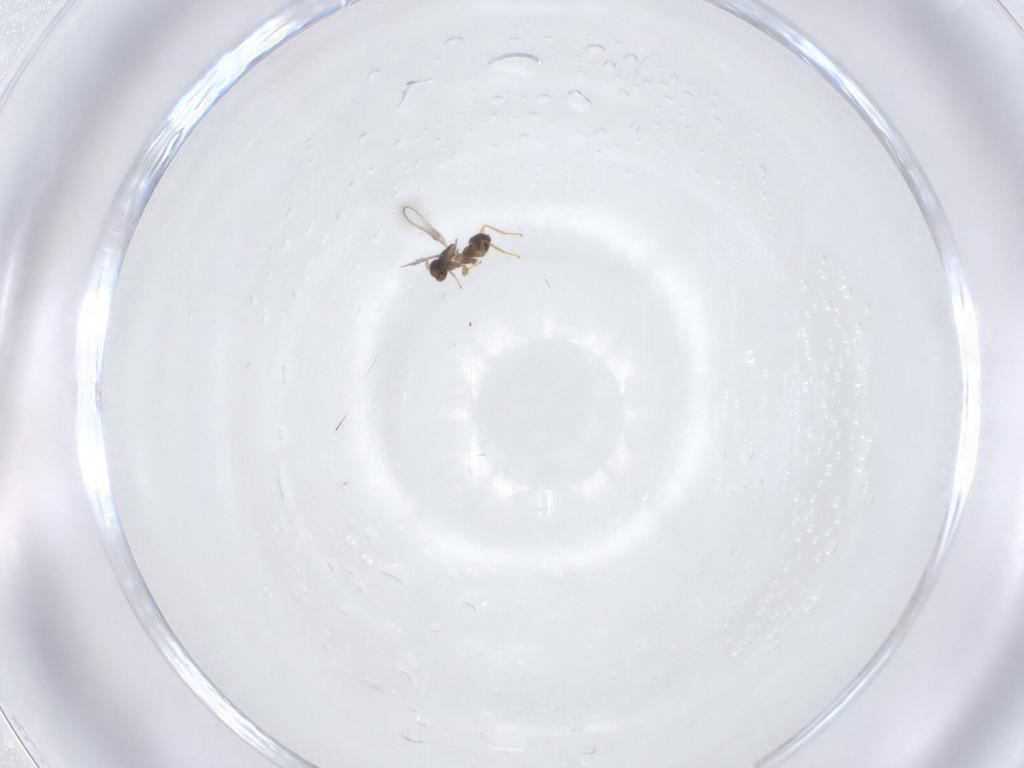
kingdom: Animalia
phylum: Arthropoda
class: Insecta
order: Hymenoptera
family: Mymaridae
